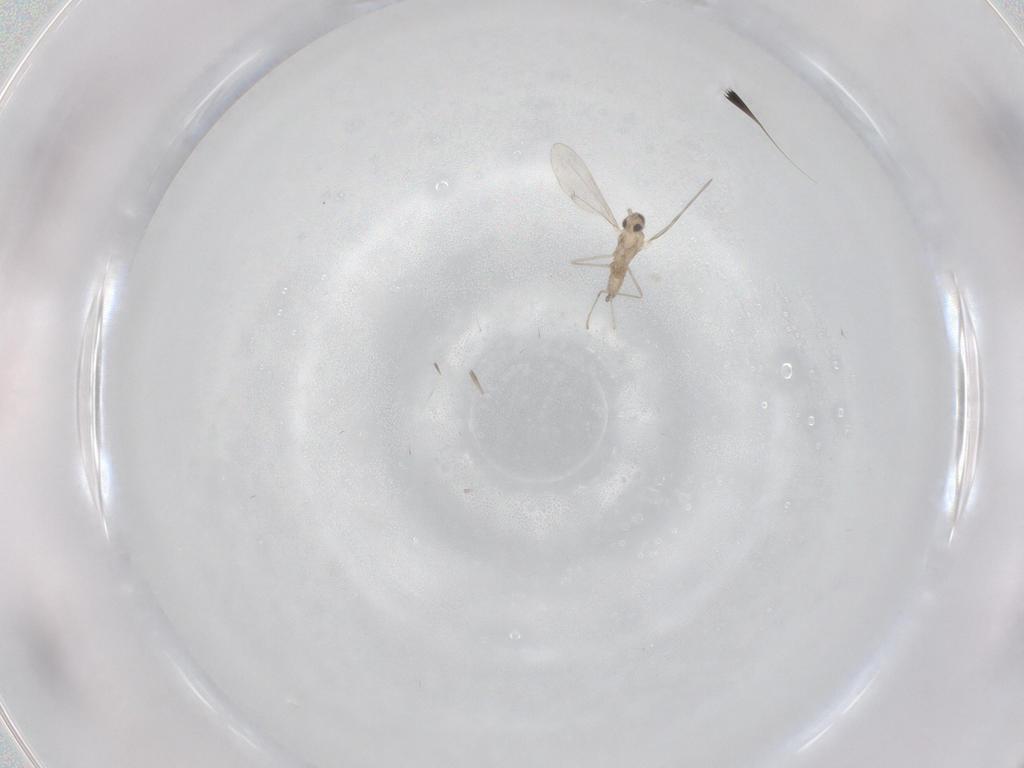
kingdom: Animalia
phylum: Arthropoda
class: Insecta
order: Diptera
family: Cecidomyiidae
